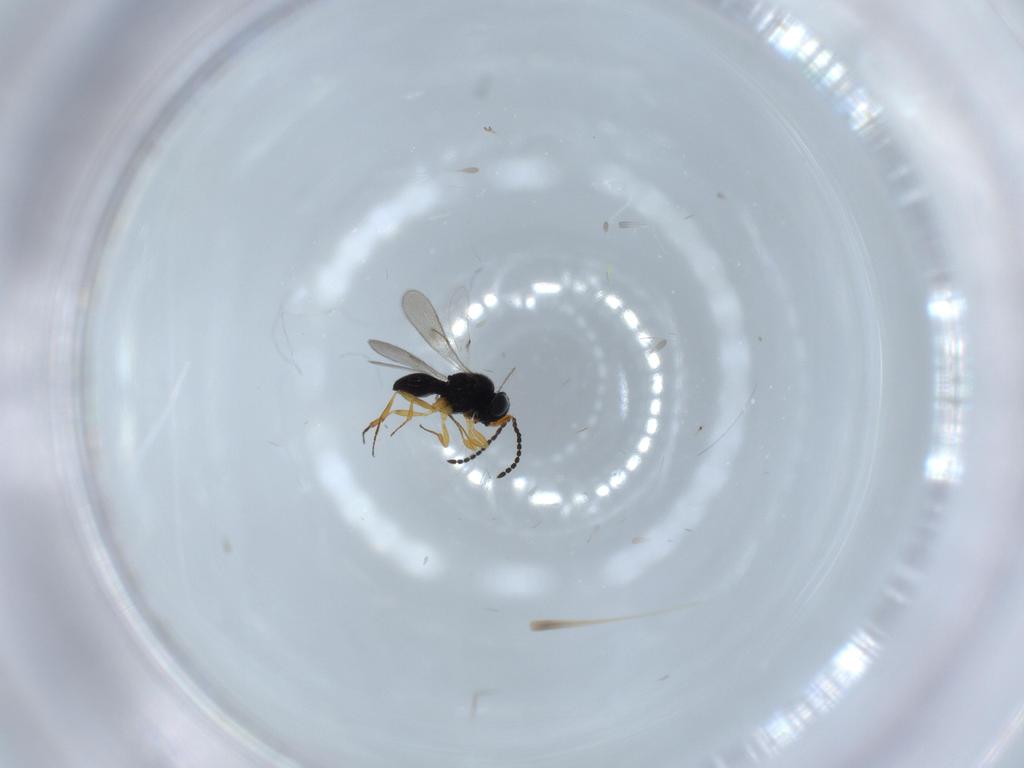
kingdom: Animalia
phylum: Arthropoda
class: Insecta
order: Hymenoptera
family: Scelionidae
